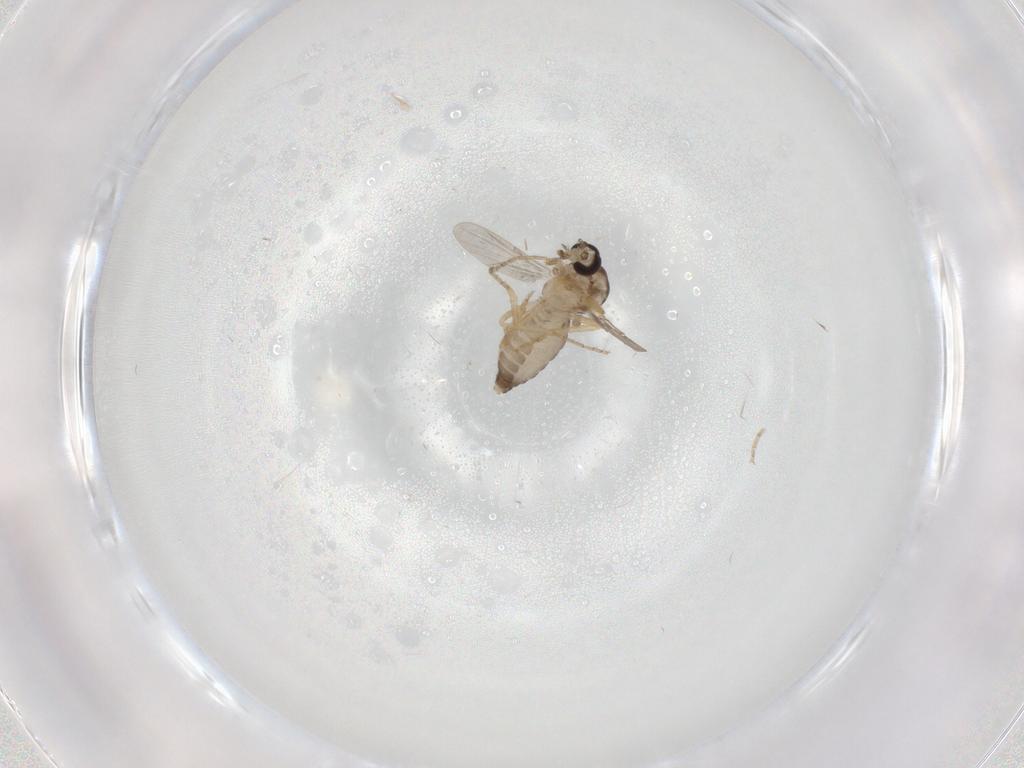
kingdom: Animalia
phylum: Arthropoda
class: Insecta
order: Diptera
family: Ceratopogonidae
